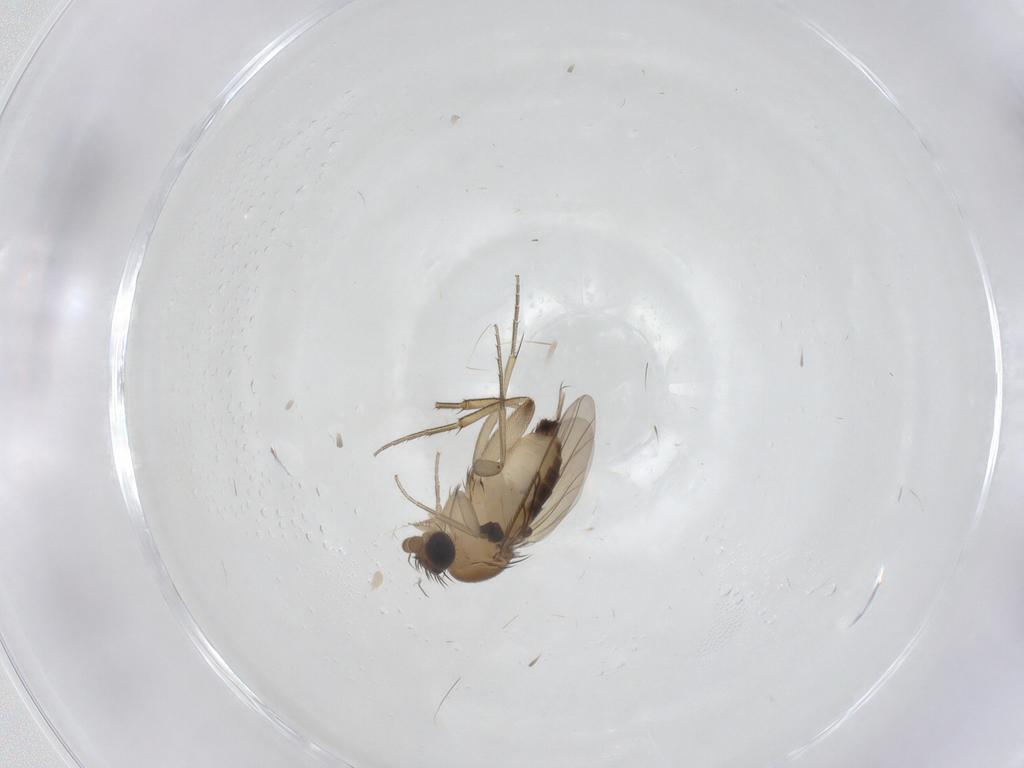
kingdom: Animalia
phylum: Arthropoda
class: Insecta
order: Diptera
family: Cecidomyiidae
